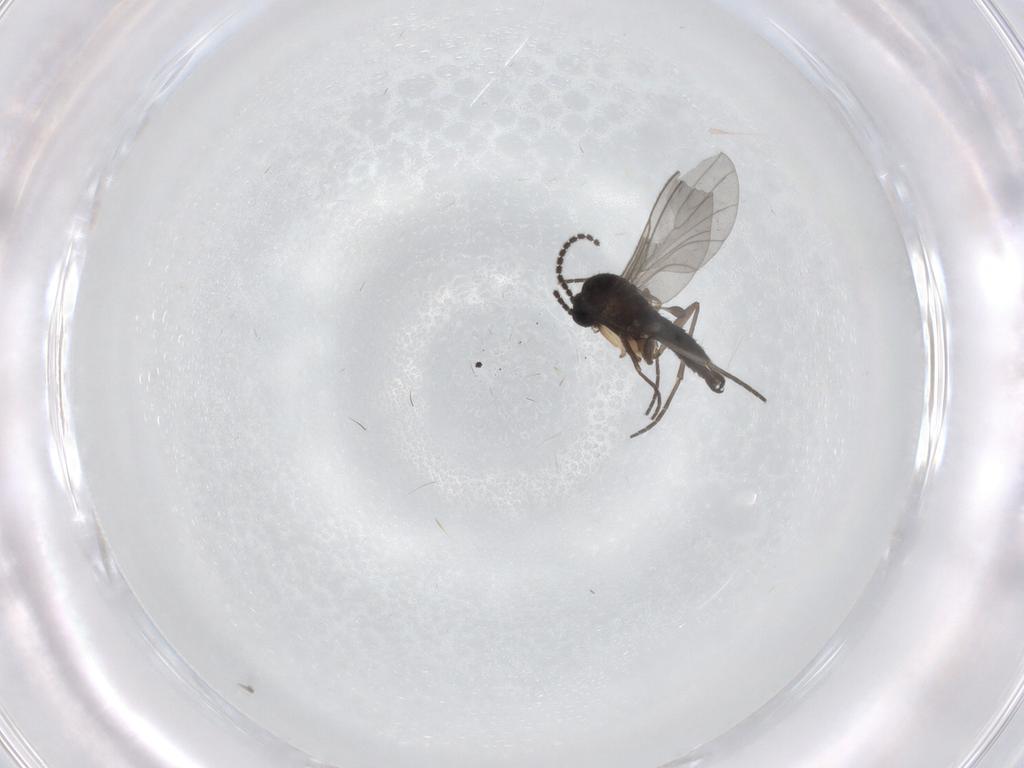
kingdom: Animalia
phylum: Arthropoda
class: Insecta
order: Diptera
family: Sciaridae
